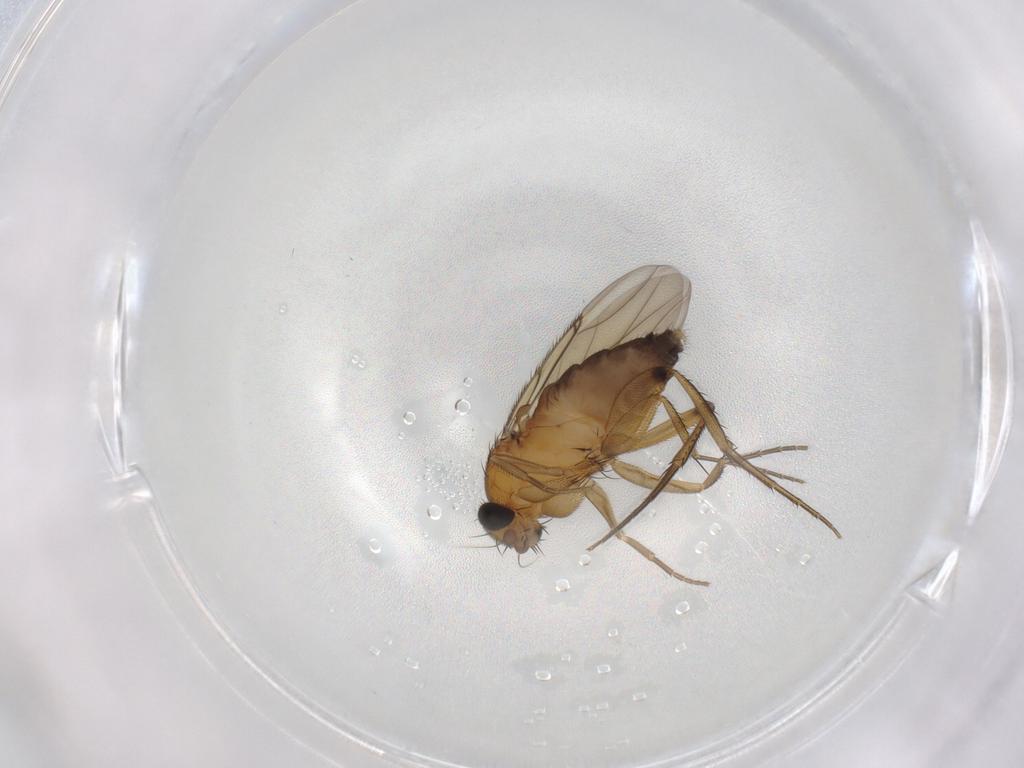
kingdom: Animalia
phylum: Arthropoda
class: Insecta
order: Diptera
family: Phoridae
